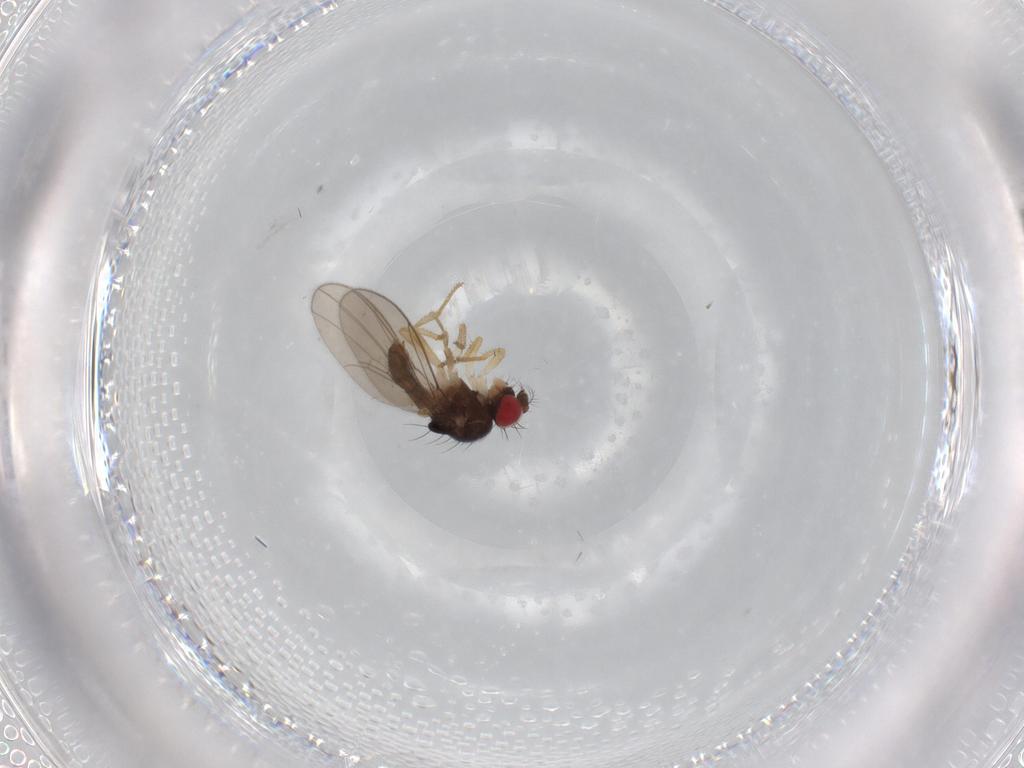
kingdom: Animalia
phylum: Arthropoda
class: Insecta
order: Diptera
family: Drosophilidae
